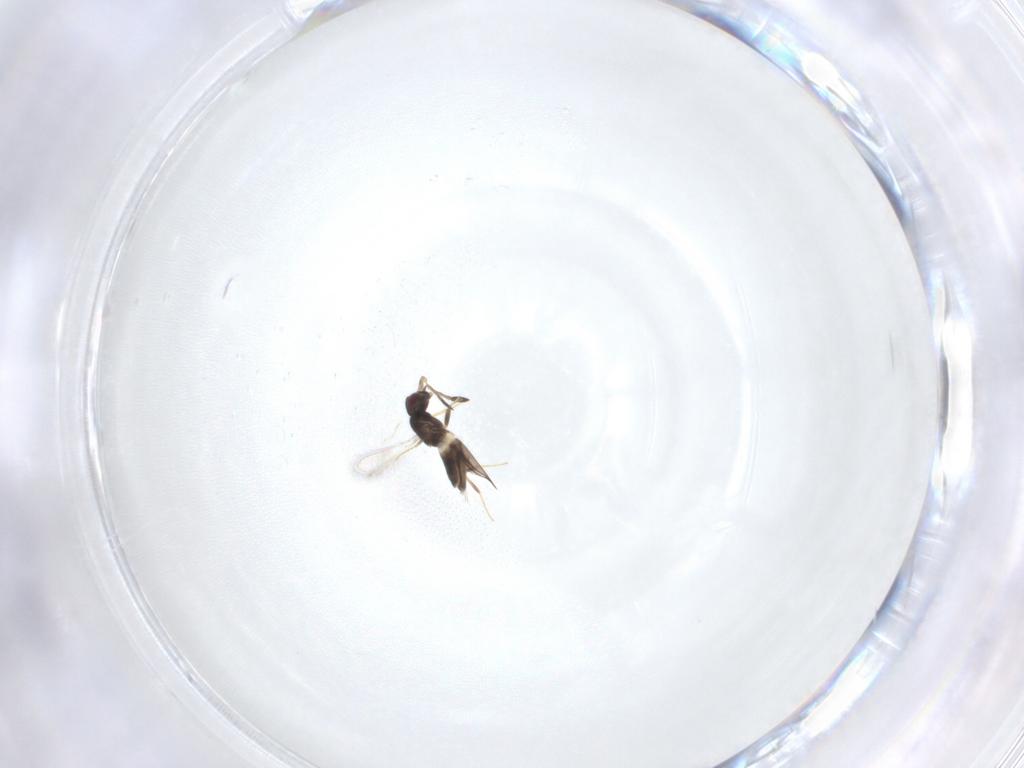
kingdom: Animalia
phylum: Arthropoda
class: Insecta
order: Hymenoptera
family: Mymaridae
